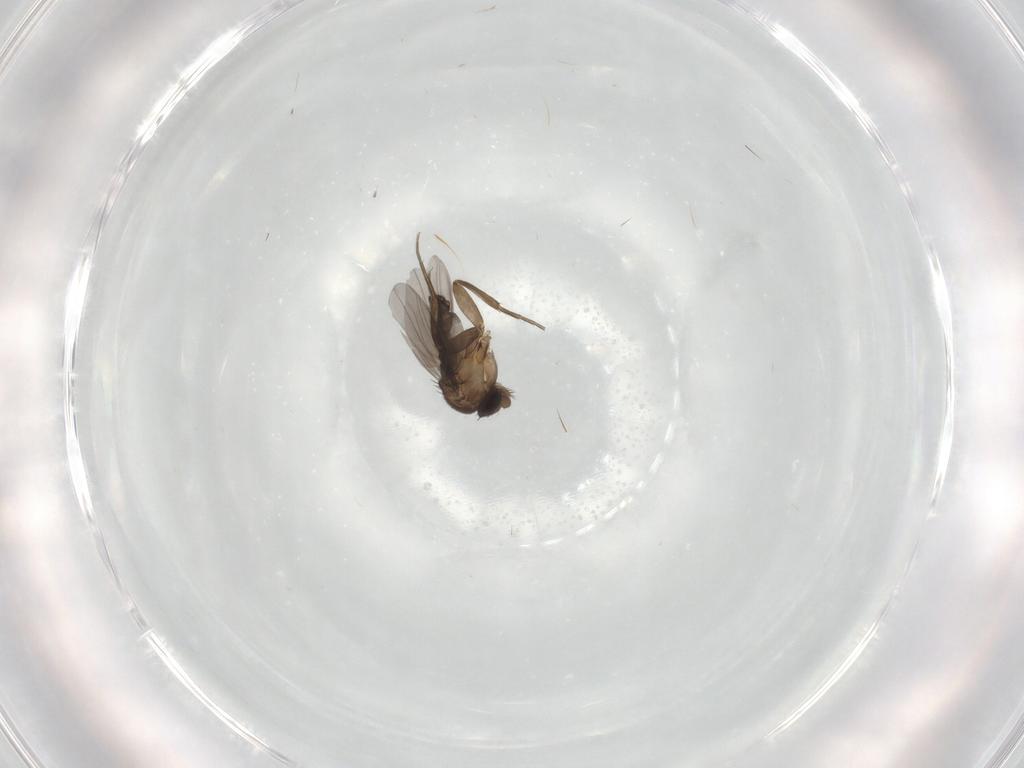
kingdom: Animalia
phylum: Arthropoda
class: Insecta
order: Diptera
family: Phoridae
